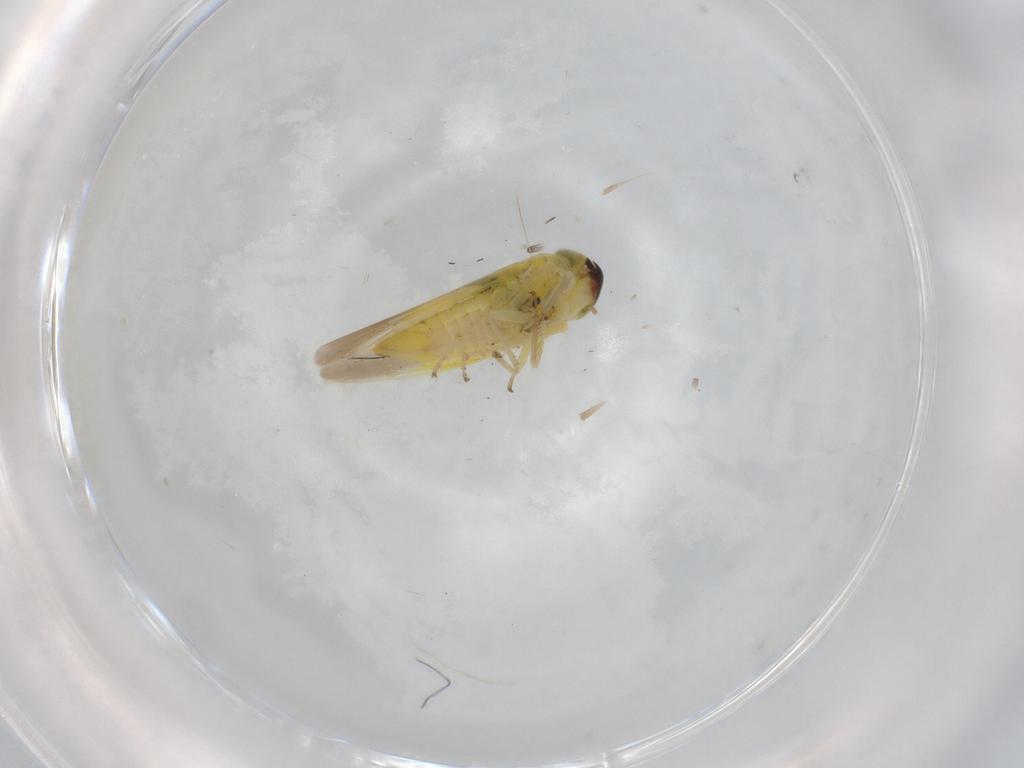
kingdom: Animalia
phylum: Arthropoda
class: Insecta
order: Hemiptera
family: Cicadellidae
